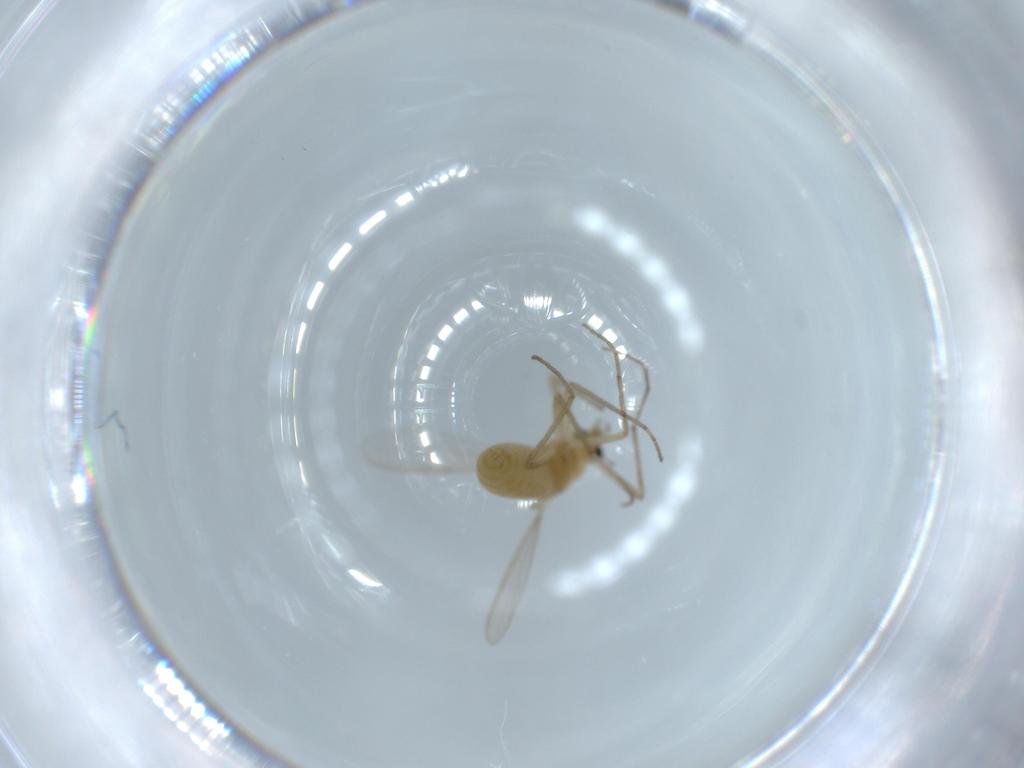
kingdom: Animalia
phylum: Arthropoda
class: Insecta
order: Diptera
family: Chironomidae
